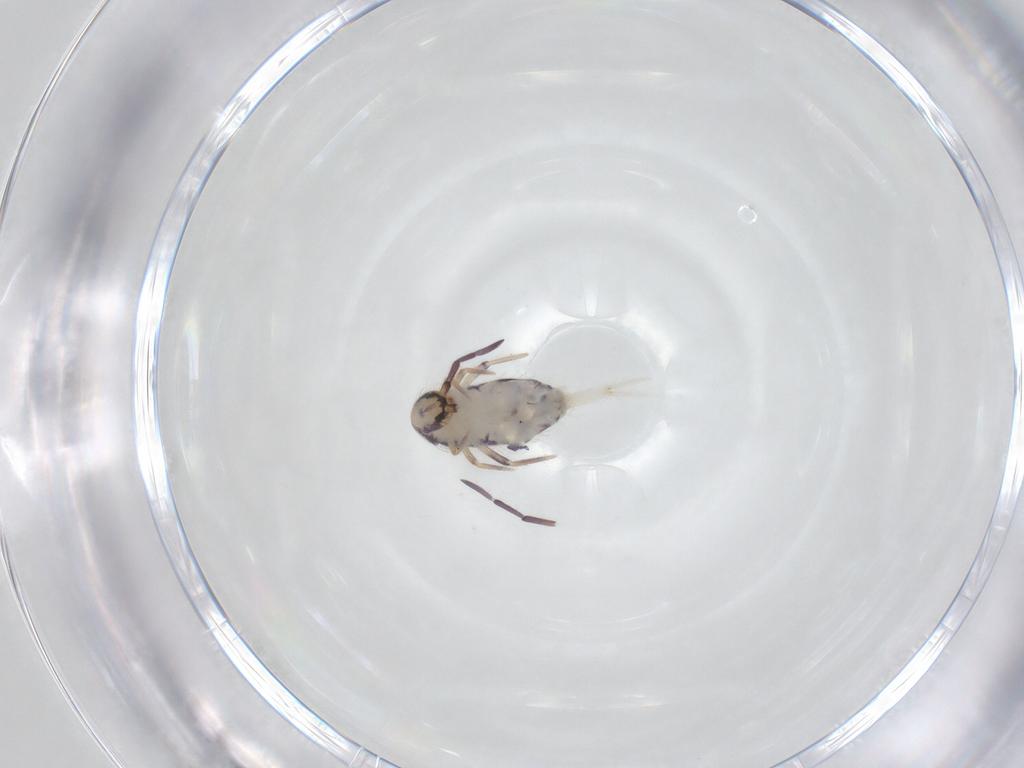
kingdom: Animalia
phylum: Arthropoda
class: Collembola
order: Entomobryomorpha
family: Entomobryidae
